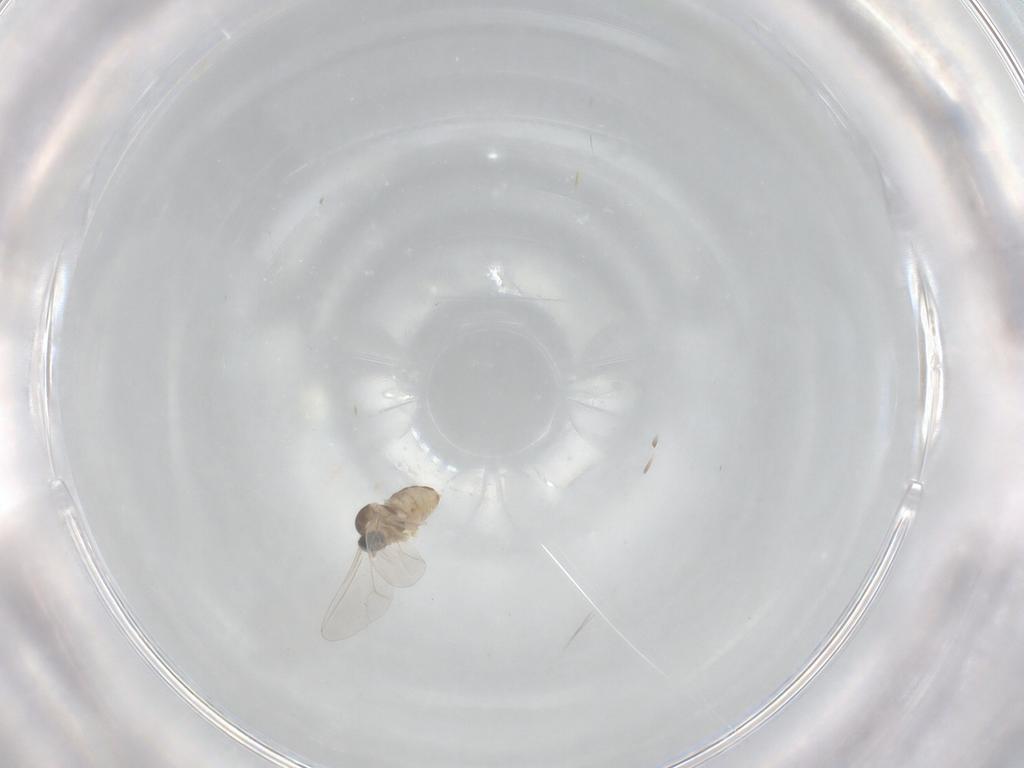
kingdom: Animalia
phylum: Arthropoda
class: Insecta
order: Diptera
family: Cecidomyiidae
